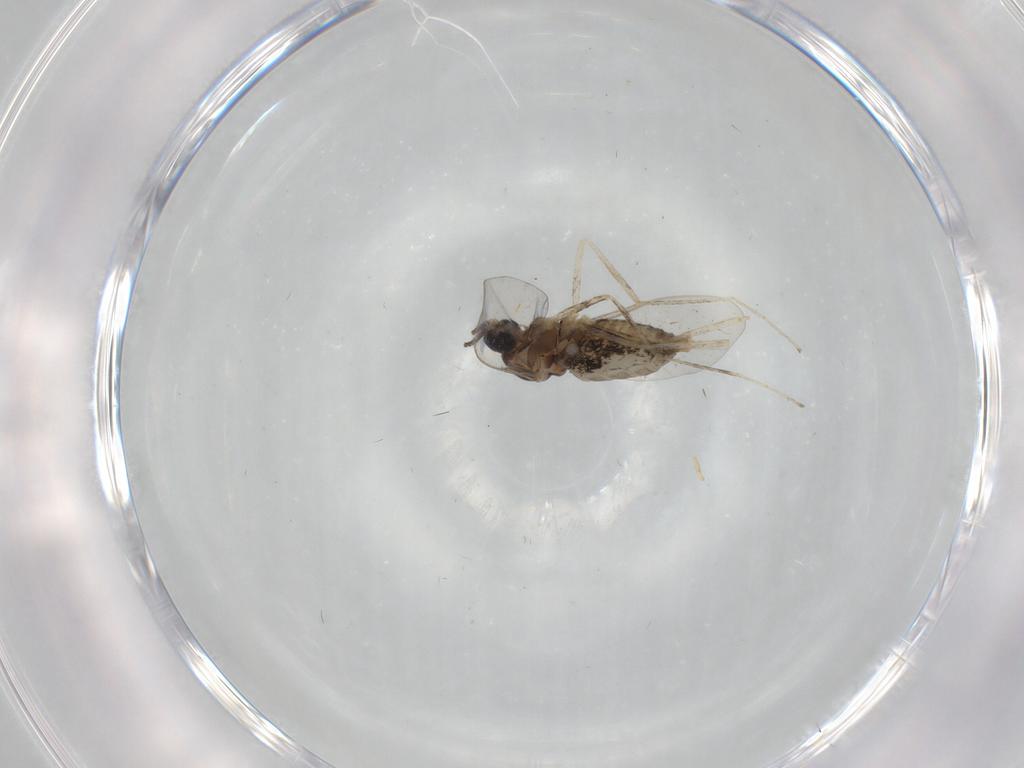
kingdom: Animalia
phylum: Arthropoda
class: Insecta
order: Diptera
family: Cecidomyiidae
